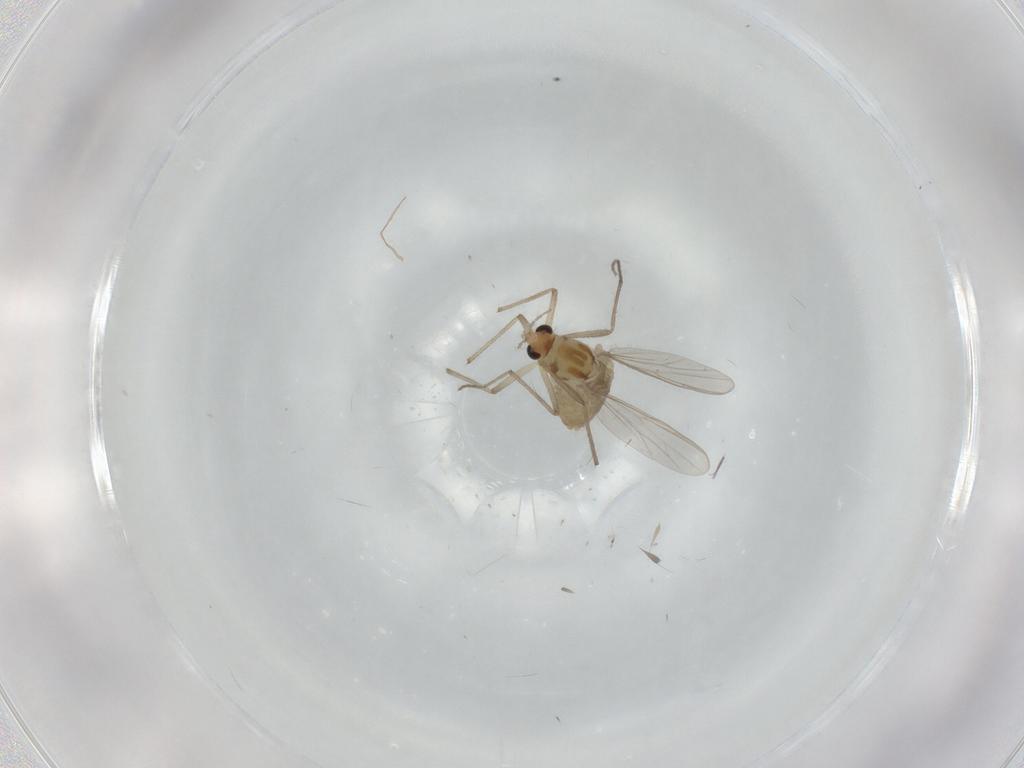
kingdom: Animalia
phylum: Arthropoda
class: Insecta
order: Diptera
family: Chironomidae
